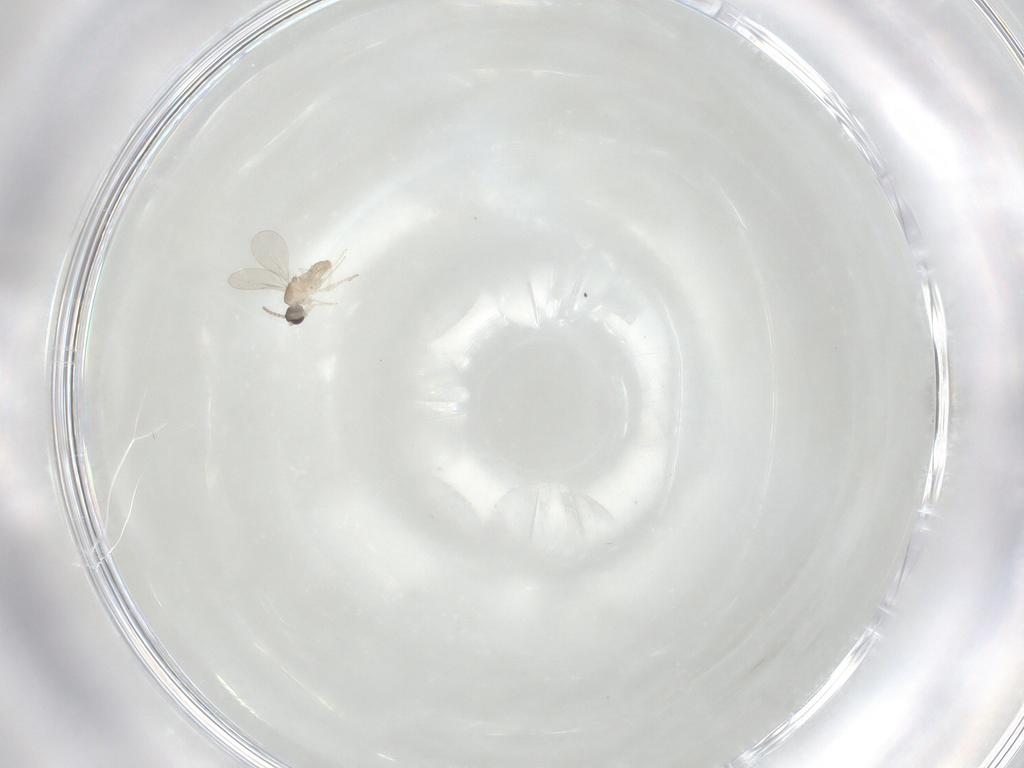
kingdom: Animalia
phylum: Arthropoda
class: Insecta
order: Diptera
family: Cecidomyiidae
